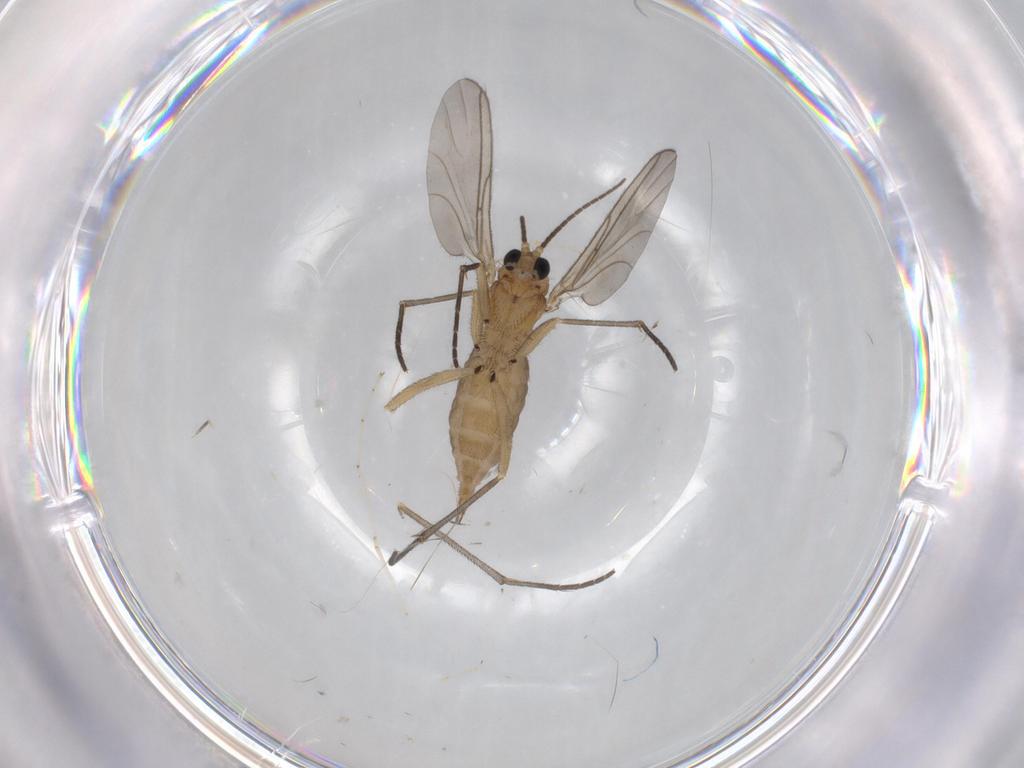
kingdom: Animalia
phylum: Arthropoda
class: Insecta
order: Diptera
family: Sciaridae
